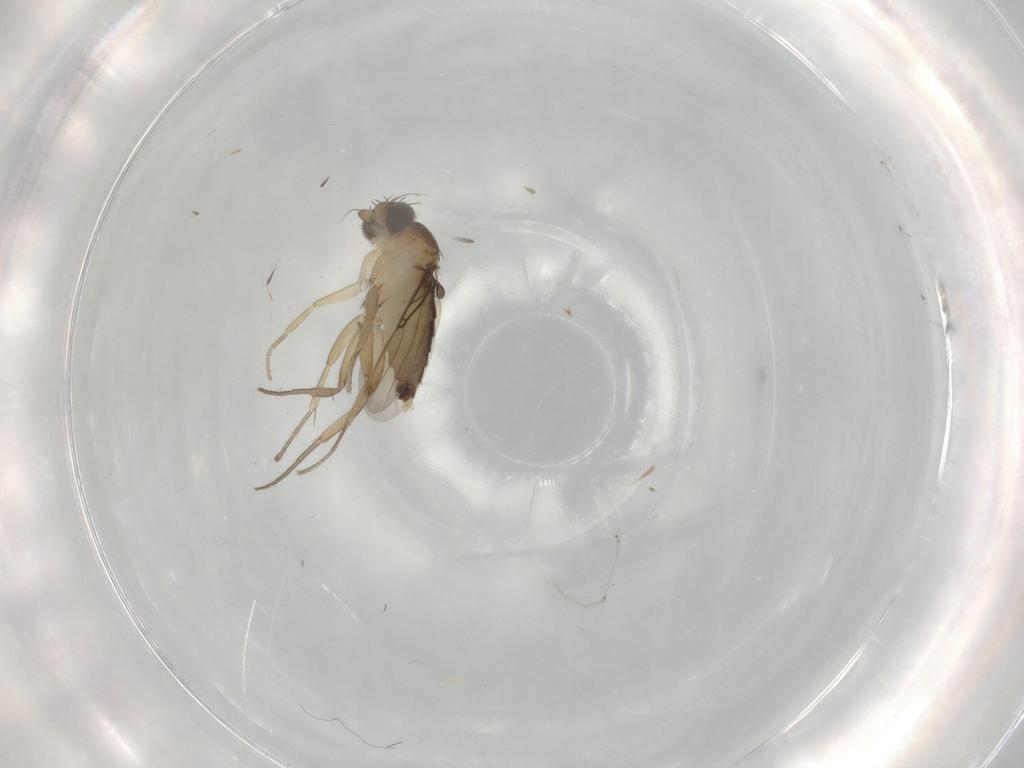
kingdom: Animalia
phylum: Arthropoda
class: Insecta
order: Diptera
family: Phoridae
